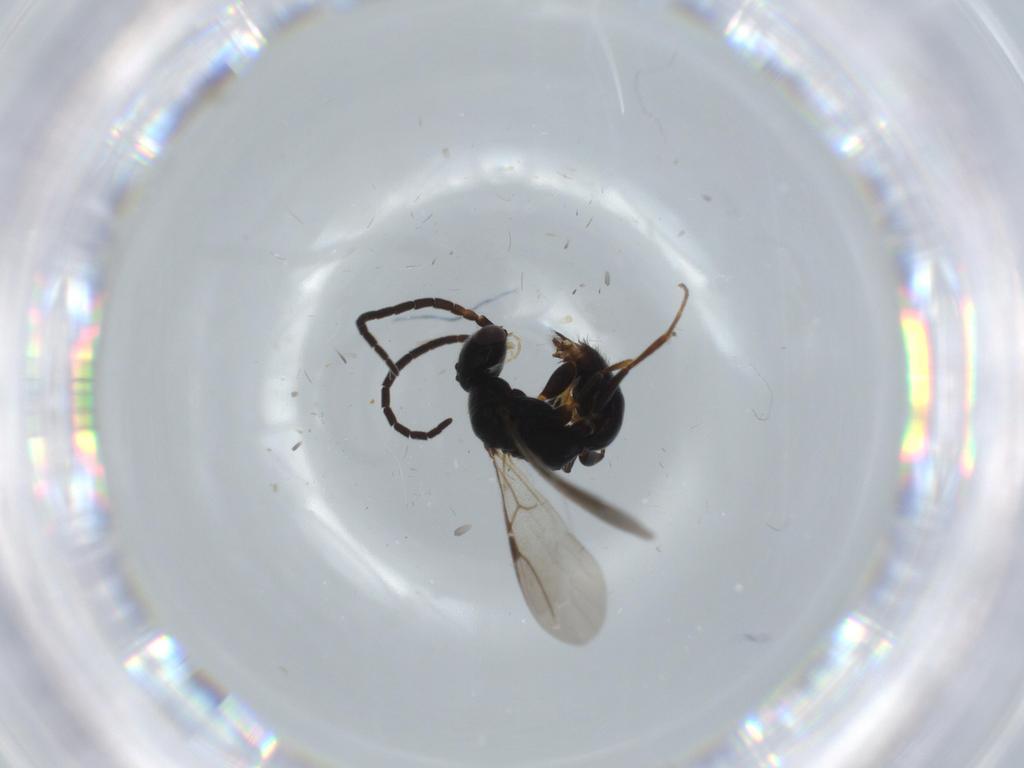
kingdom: Animalia
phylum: Arthropoda
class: Insecta
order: Hymenoptera
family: Bethylidae
